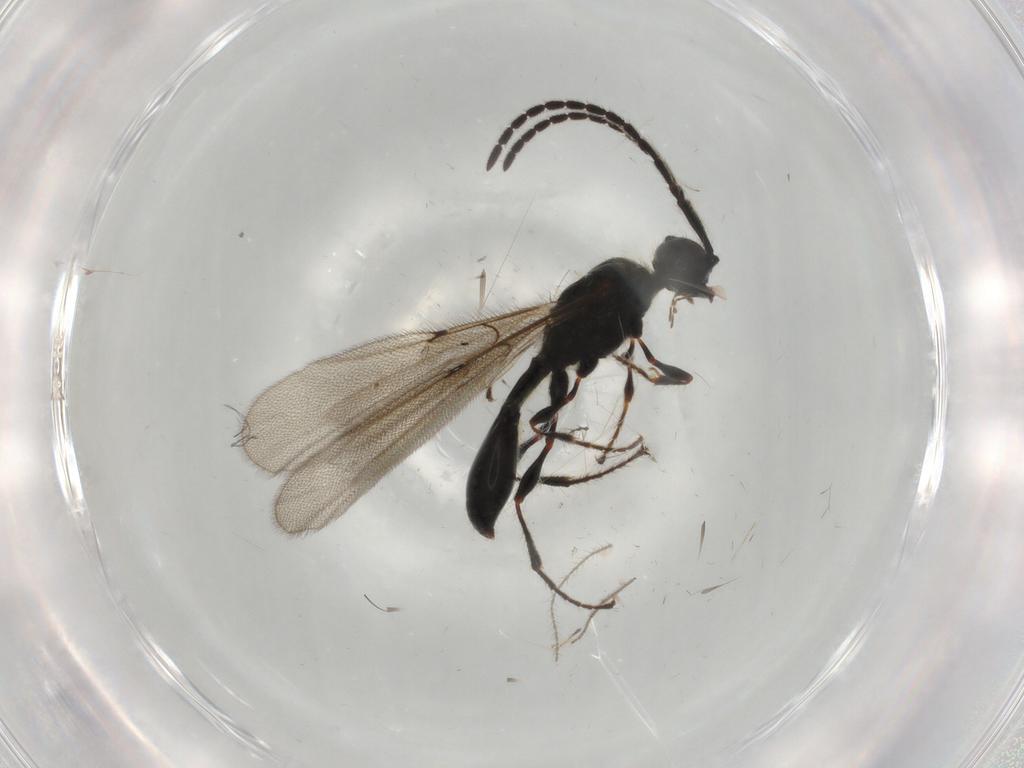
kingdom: Animalia
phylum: Arthropoda
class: Insecta
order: Hymenoptera
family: Diapriidae
